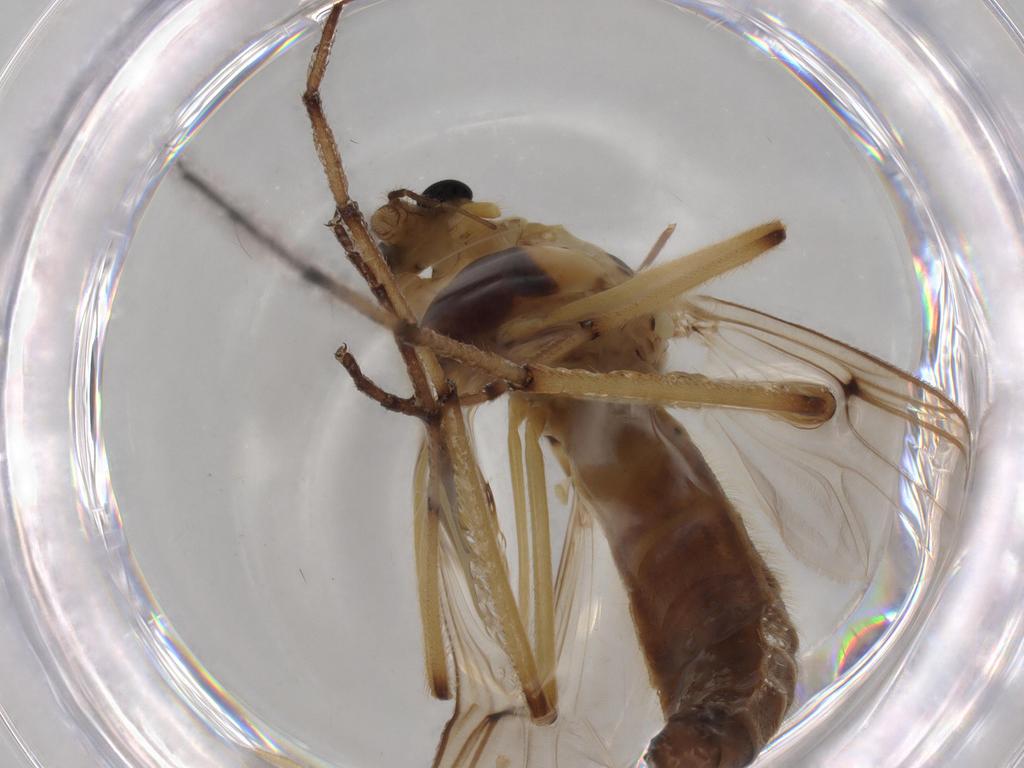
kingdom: Animalia
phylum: Arthropoda
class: Insecta
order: Diptera
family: Chironomidae
